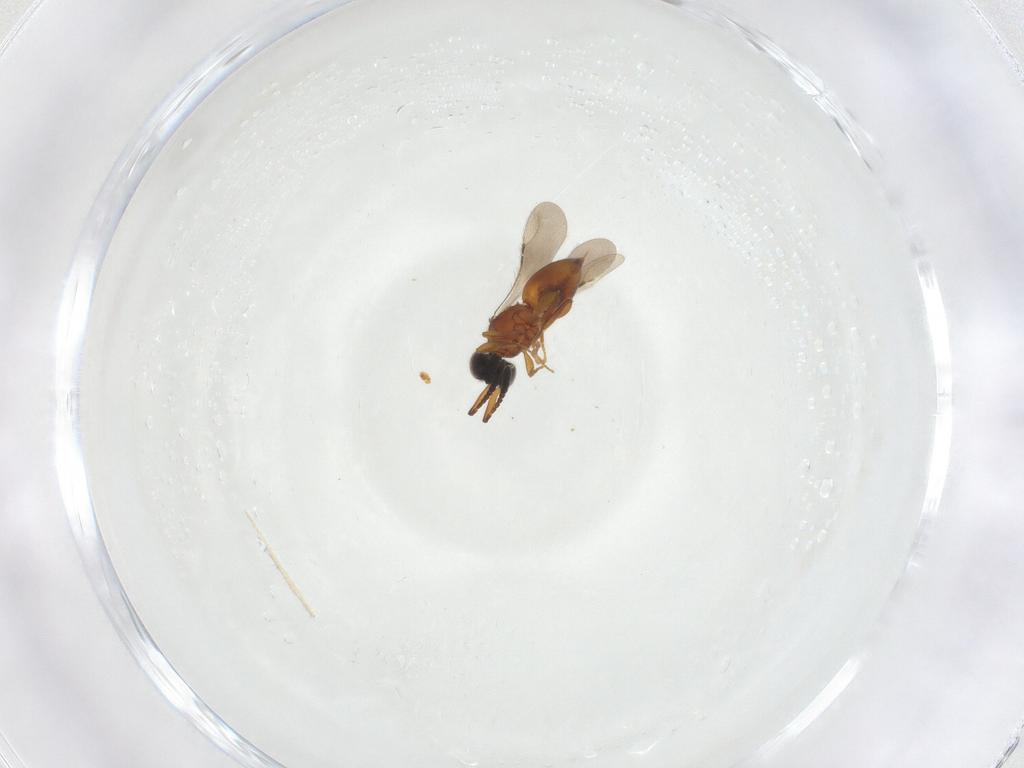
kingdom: Animalia
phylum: Arthropoda
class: Insecta
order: Hymenoptera
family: Ceraphronidae
